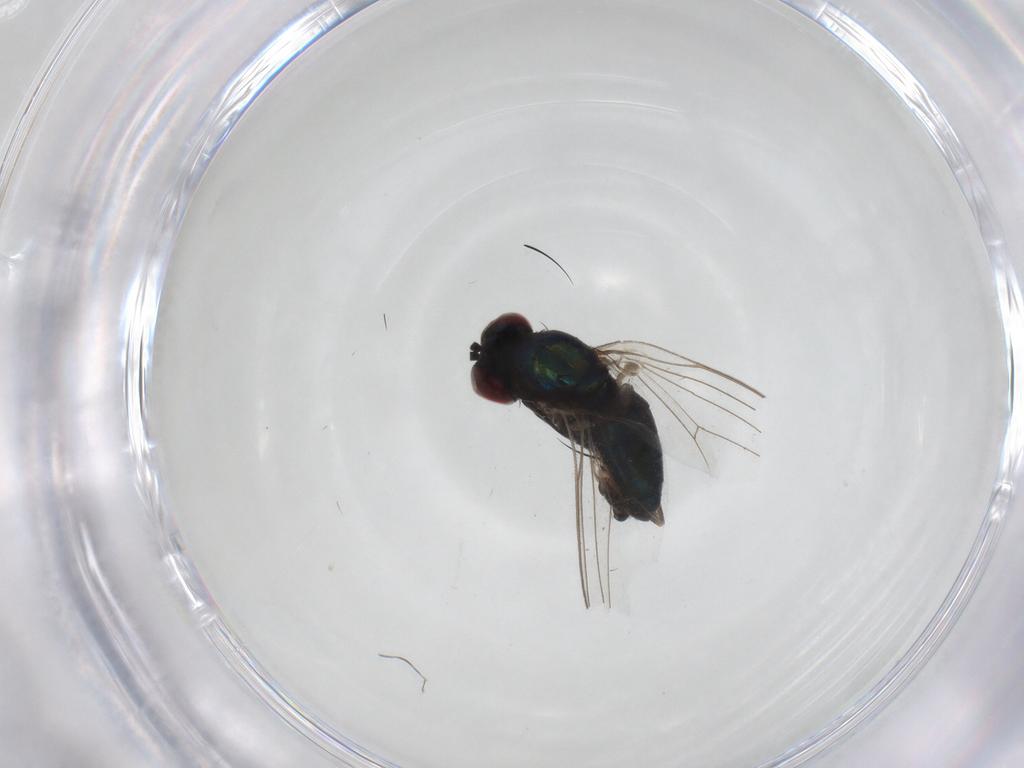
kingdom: Animalia
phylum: Arthropoda
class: Insecta
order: Diptera
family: Dolichopodidae
